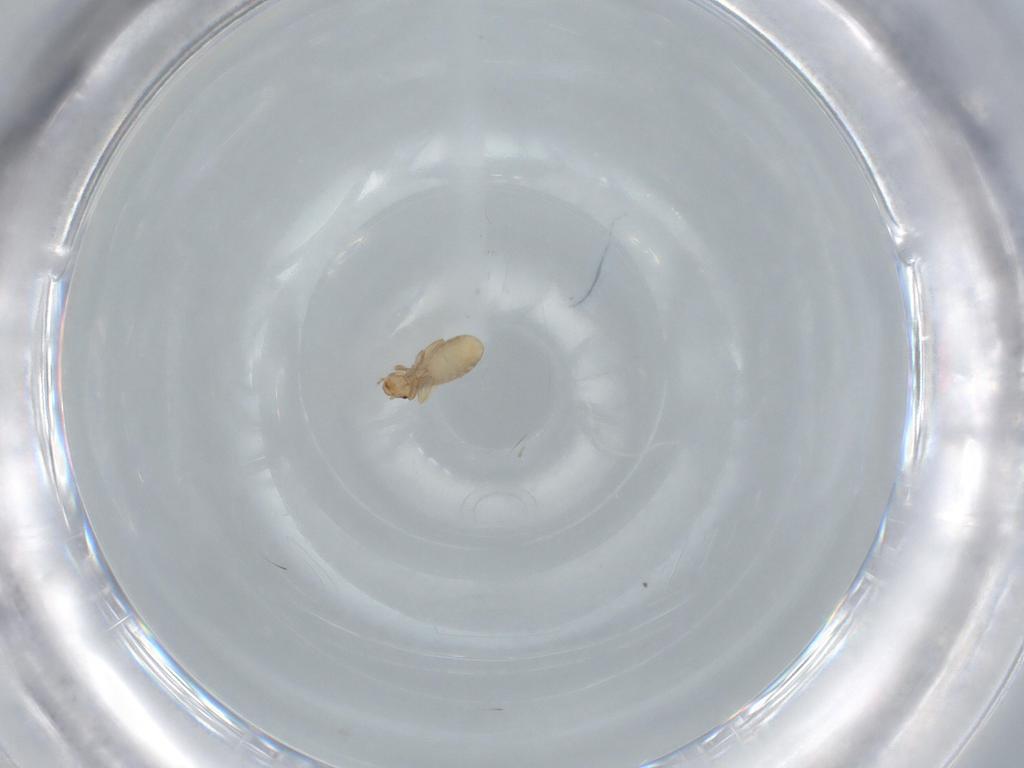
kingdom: Animalia
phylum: Arthropoda
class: Insecta
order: Psocodea
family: Liposcelididae
